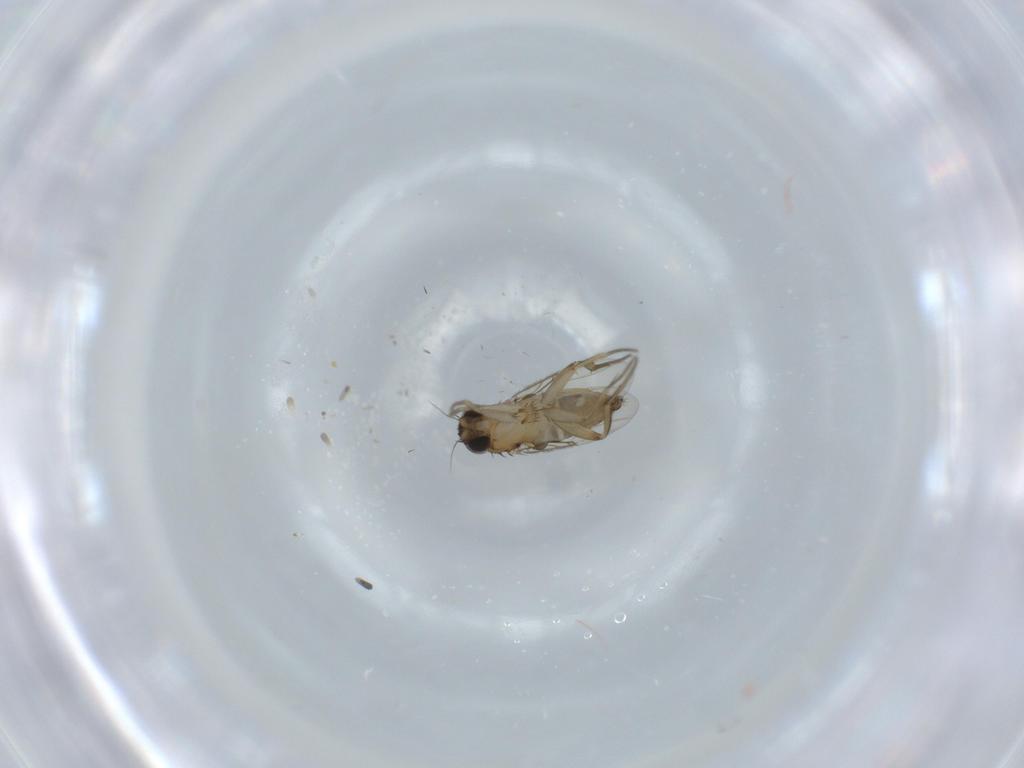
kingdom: Animalia
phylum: Arthropoda
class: Insecta
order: Diptera
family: Phoridae
